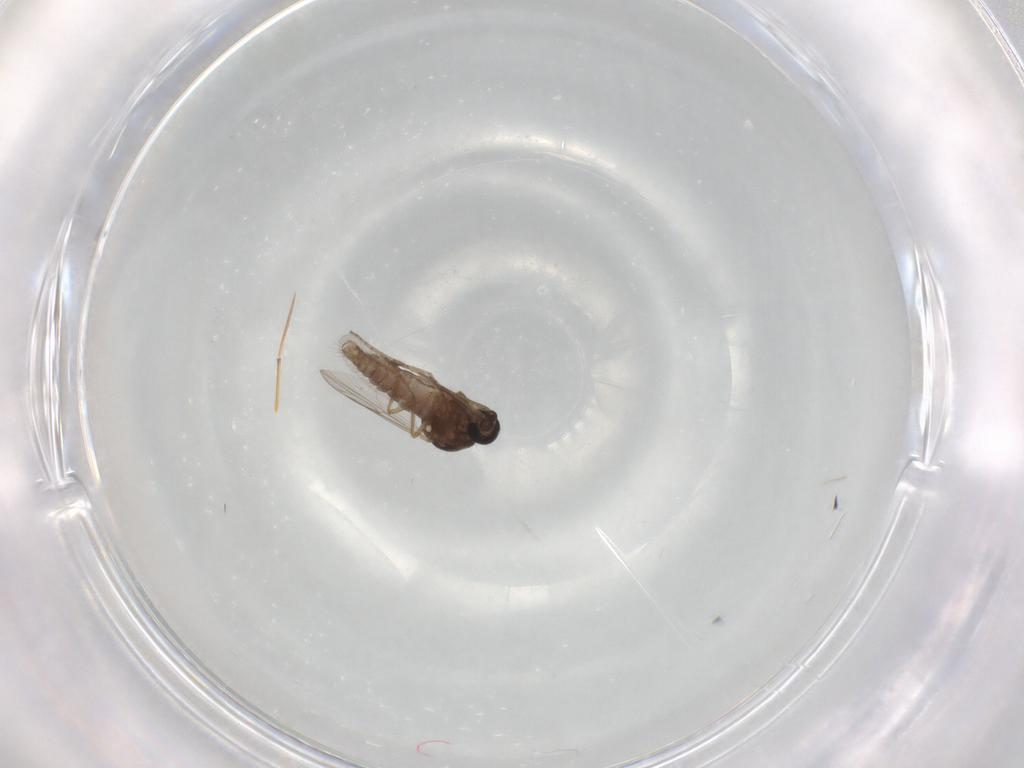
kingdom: Animalia
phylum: Arthropoda
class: Insecta
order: Diptera
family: Ceratopogonidae
